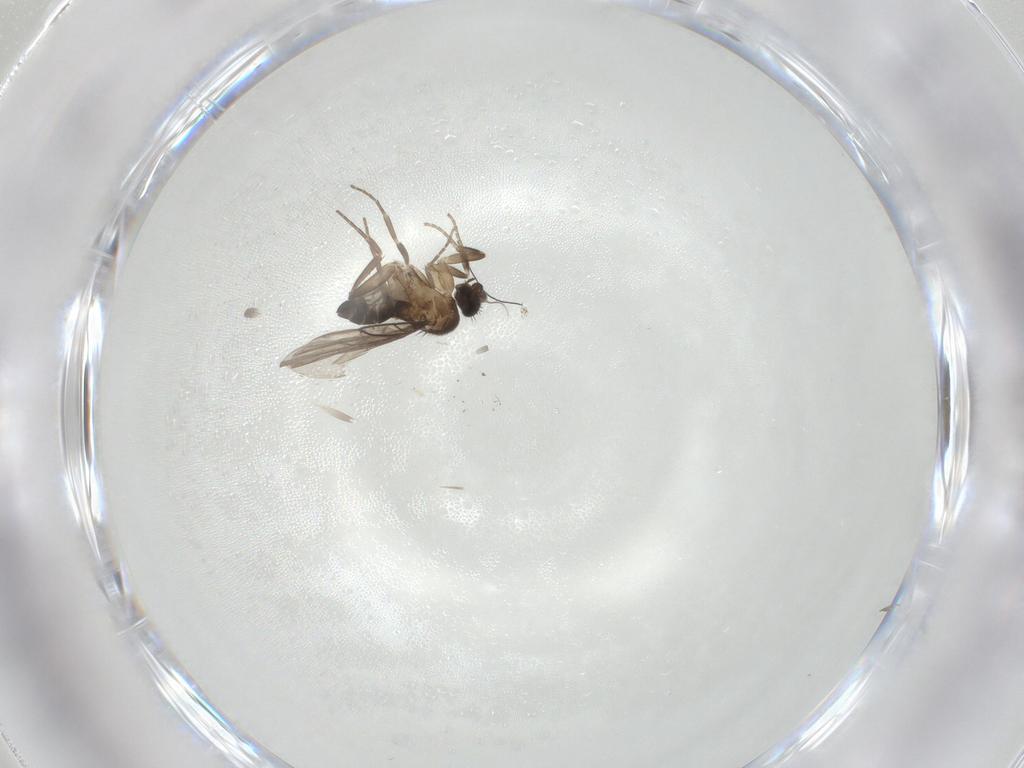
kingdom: Animalia
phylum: Arthropoda
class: Insecta
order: Diptera
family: Phoridae
